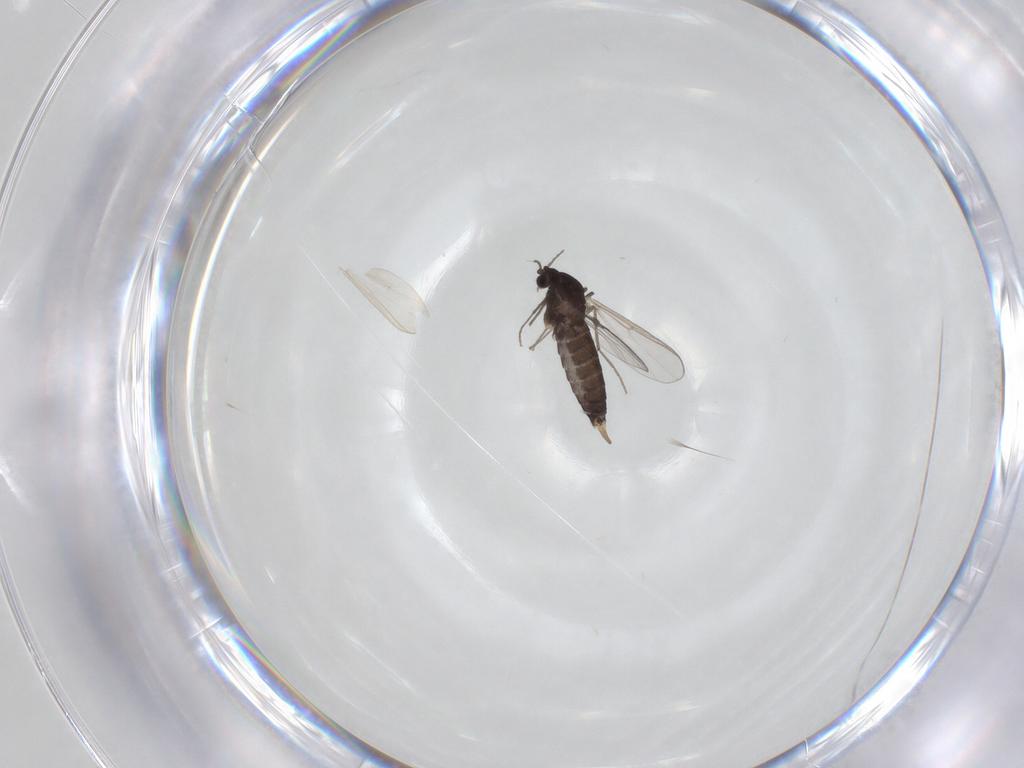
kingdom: Animalia
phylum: Arthropoda
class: Insecta
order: Diptera
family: Chironomidae
